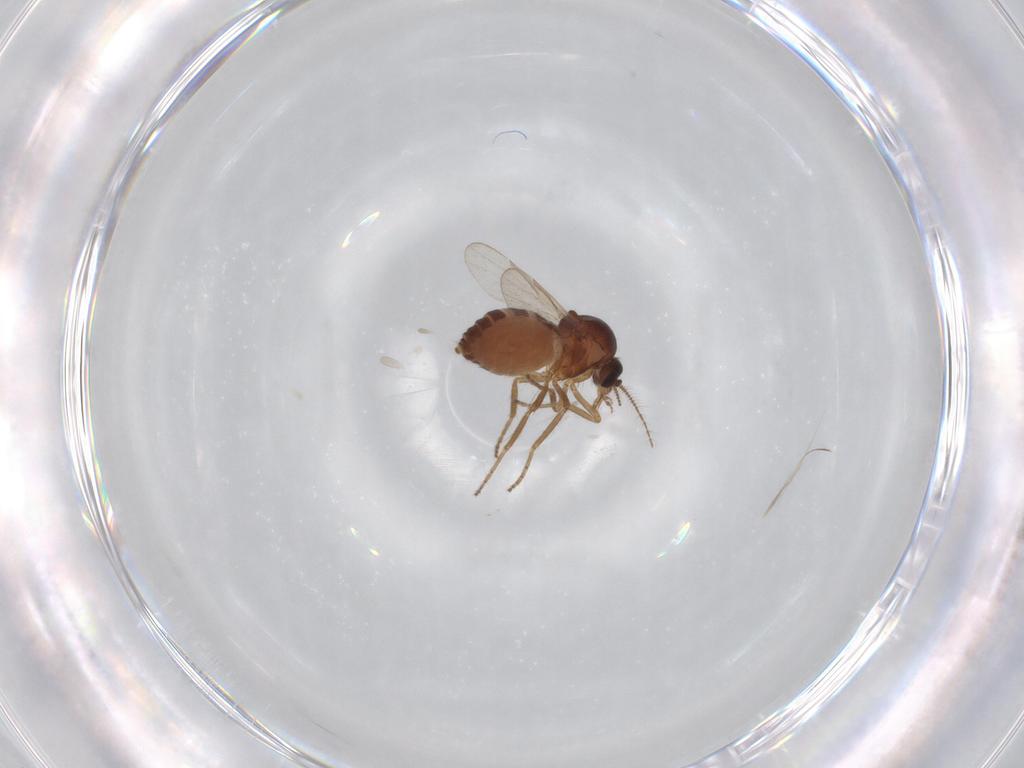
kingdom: Animalia
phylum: Arthropoda
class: Insecta
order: Diptera
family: Ceratopogonidae
